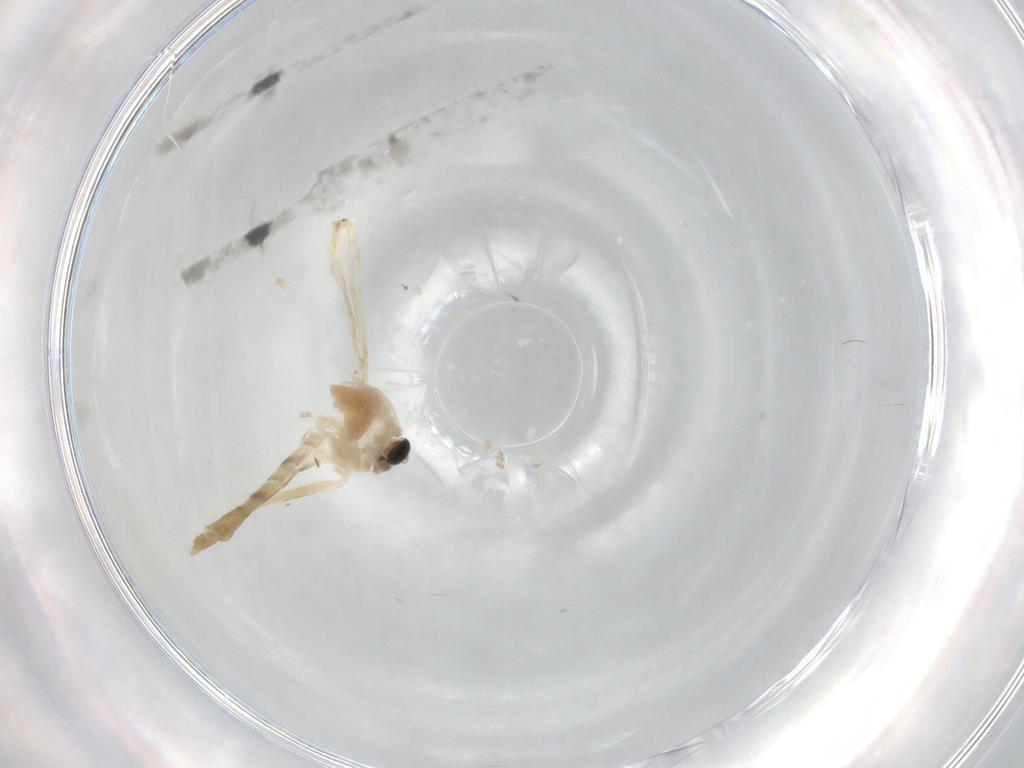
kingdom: Animalia
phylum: Arthropoda
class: Insecta
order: Diptera
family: Chironomidae
